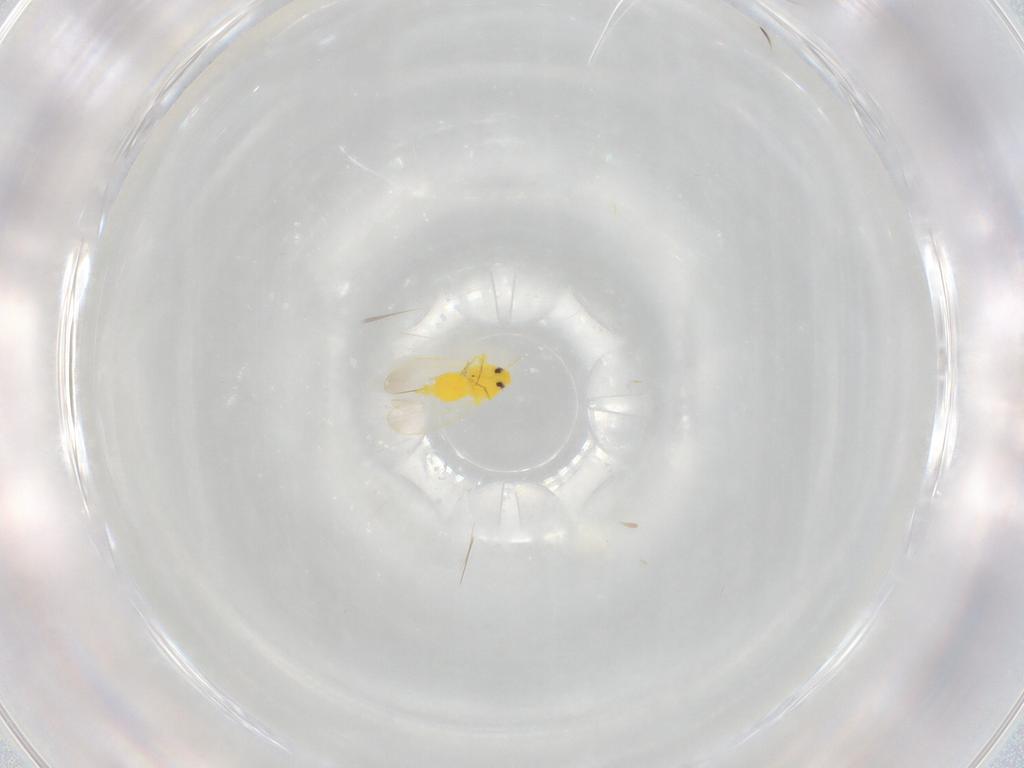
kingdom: Animalia
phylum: Arthropoda
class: Insecta
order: Hemiptera
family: Aleyrodidae
